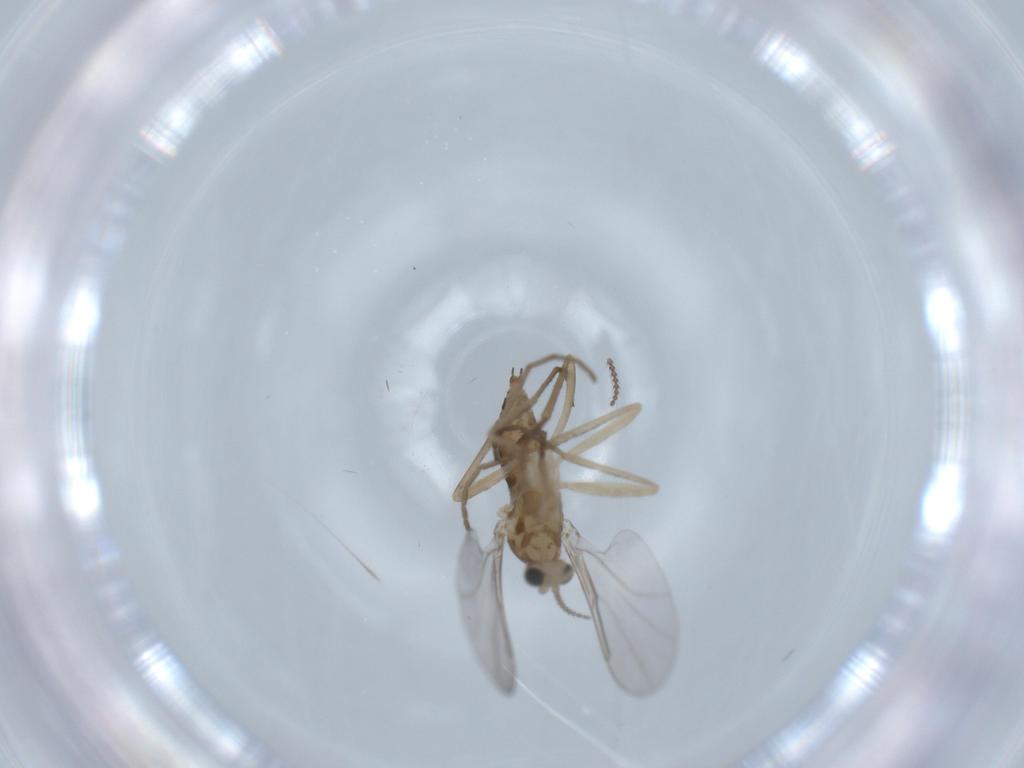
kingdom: Animalia
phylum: Arthropoda
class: Insecta
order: Diptera
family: Cecidomyiidae
